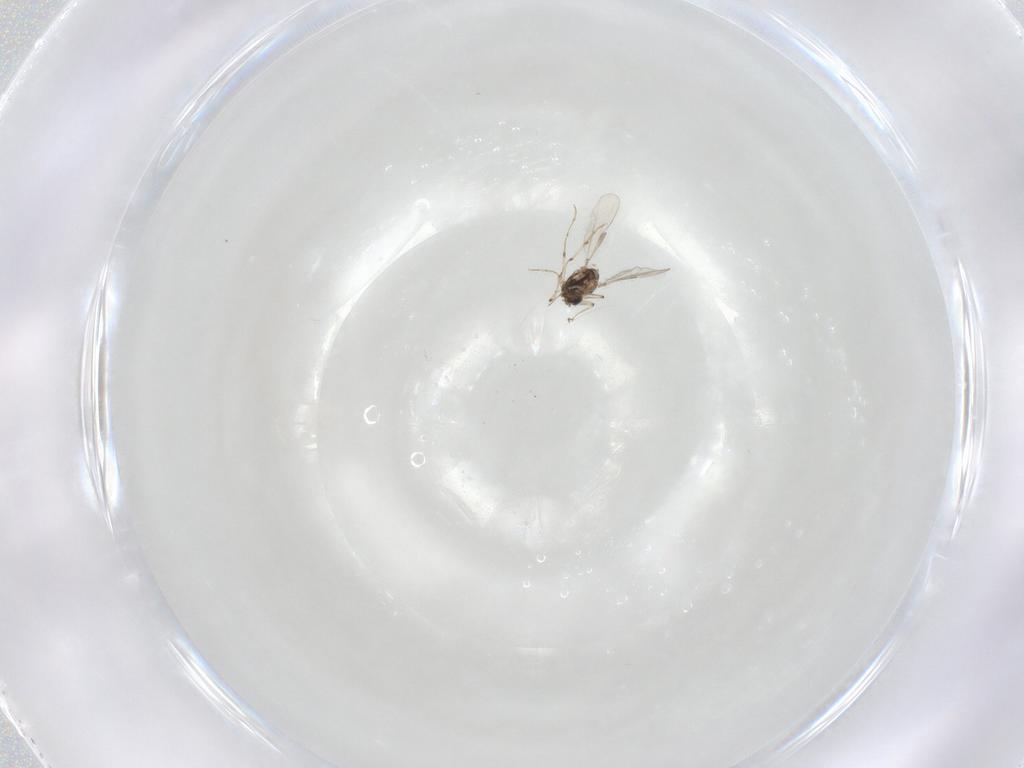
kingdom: Animalia
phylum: Arthropoda
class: Insecta
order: Diptera
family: Chironomidae
